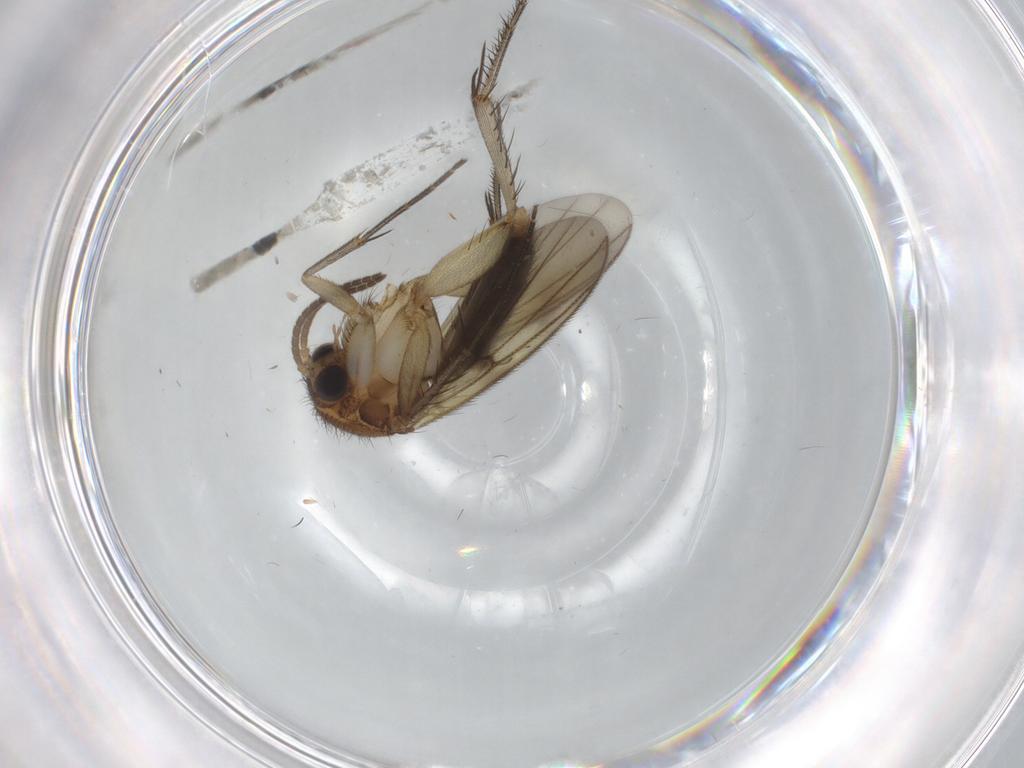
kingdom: Animalia
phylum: Arthropoda
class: Insecta
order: Diptera
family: Mycetophilidae
